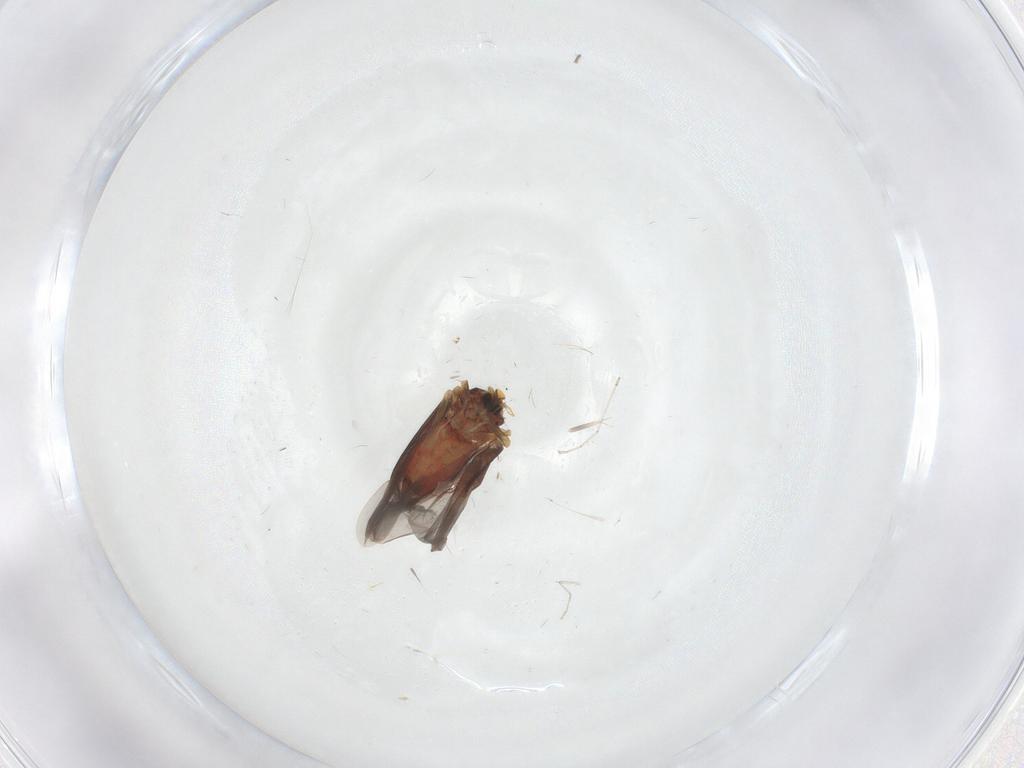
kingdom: Animalia
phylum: Arthropoda
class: Insecta
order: Hemiptera
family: Aleyrodidae
